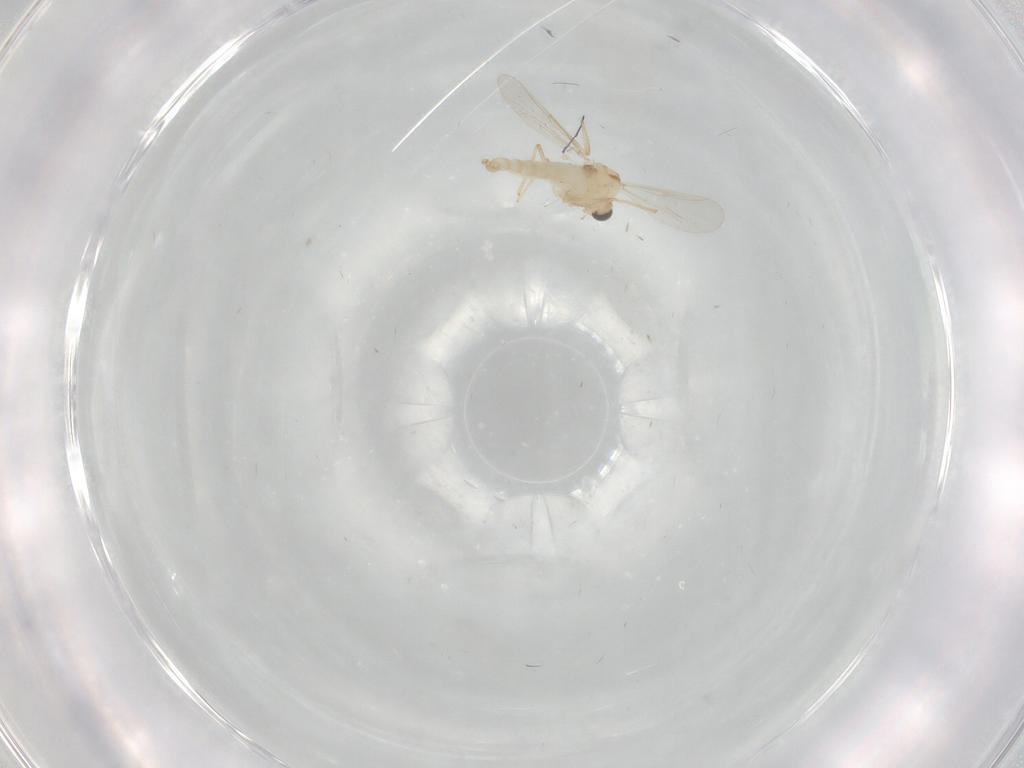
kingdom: Animalia
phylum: Arthropoda
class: Insecta
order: Diptera
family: Chironomidae
